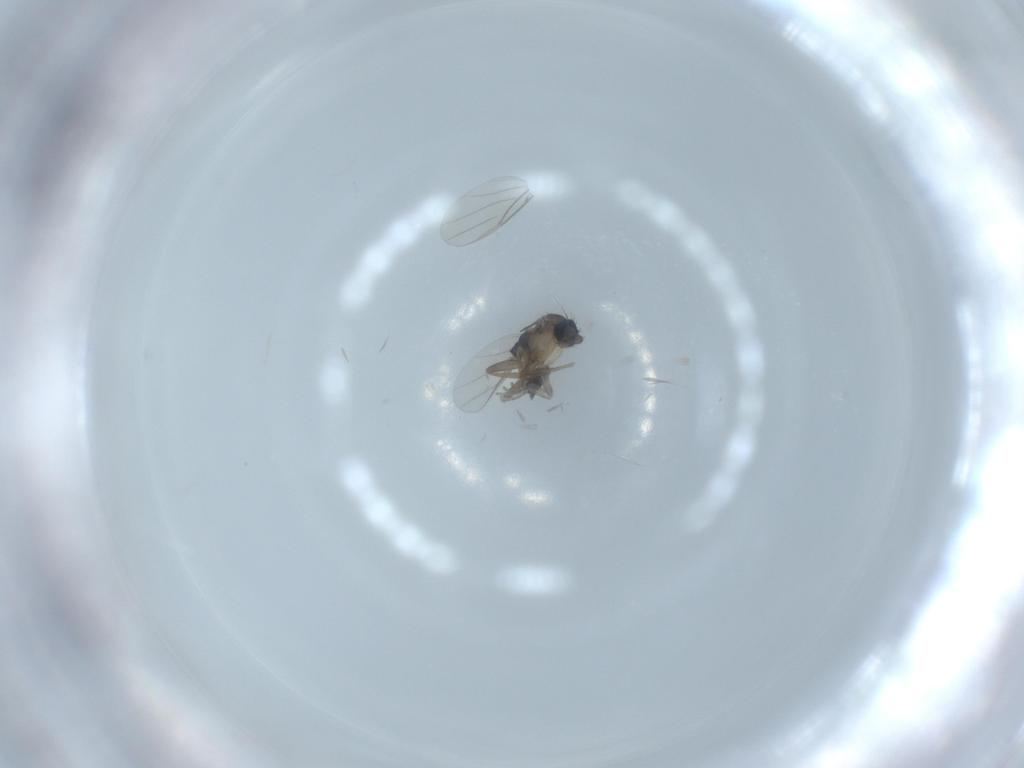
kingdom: Animalia
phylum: Arthropoda
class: Insecta
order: Diptera
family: Phoridae
